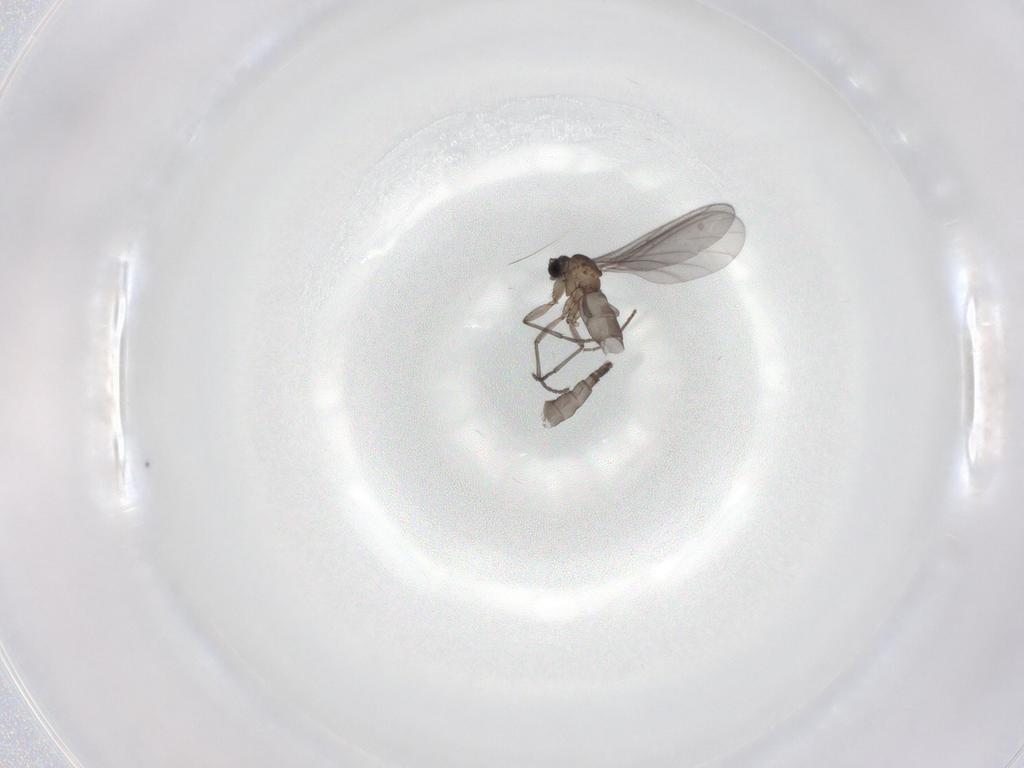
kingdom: Animalia
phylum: Arthropoda
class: Insecta
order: Diptera
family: Sciaridae
